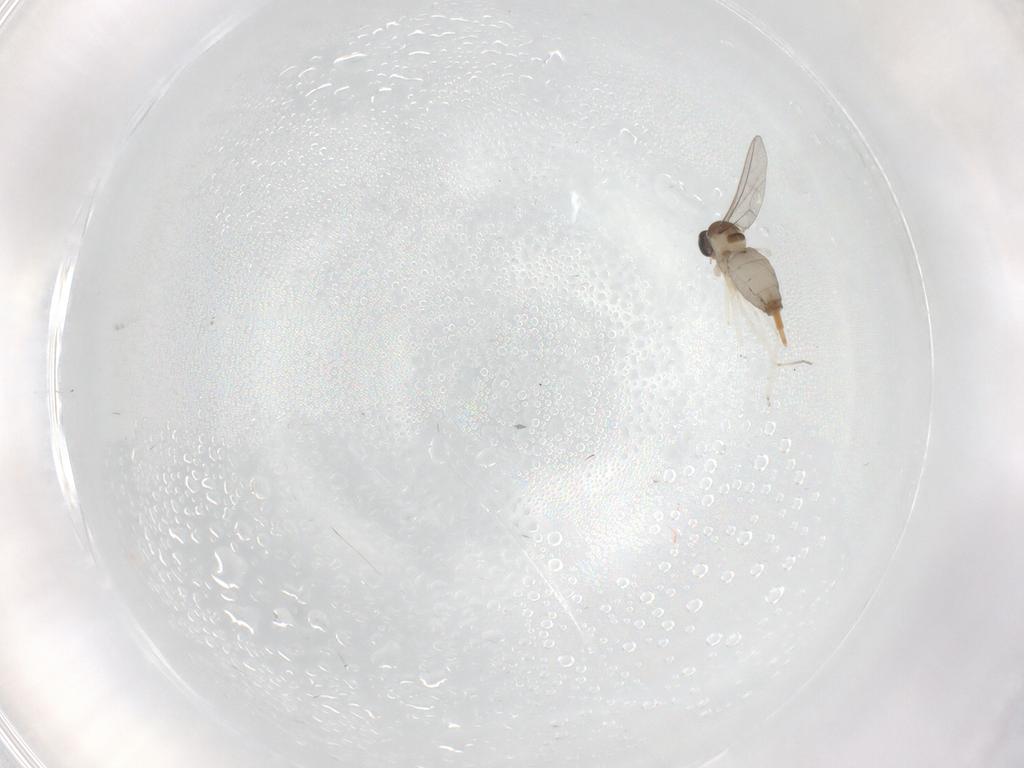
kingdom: Animalia
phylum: Arthropoda
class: Insecta
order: Diptera
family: Cecidomyiidae
